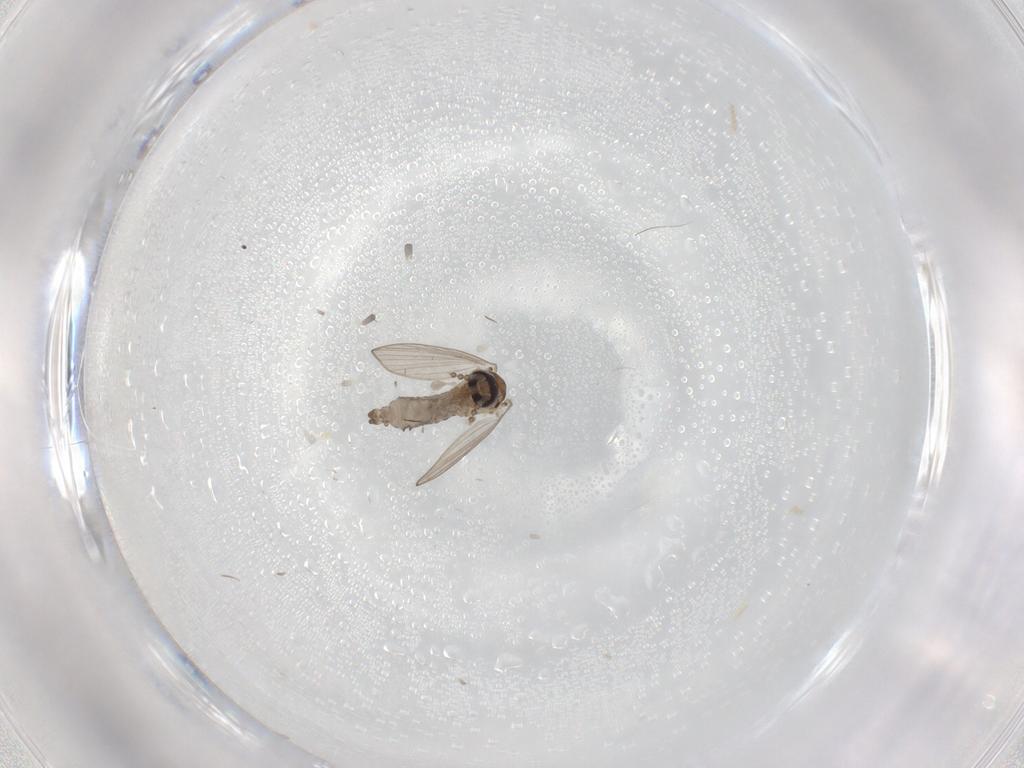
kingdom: Animalia
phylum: Arthropoda
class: Insecta
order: Diptera
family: Psychodidae
